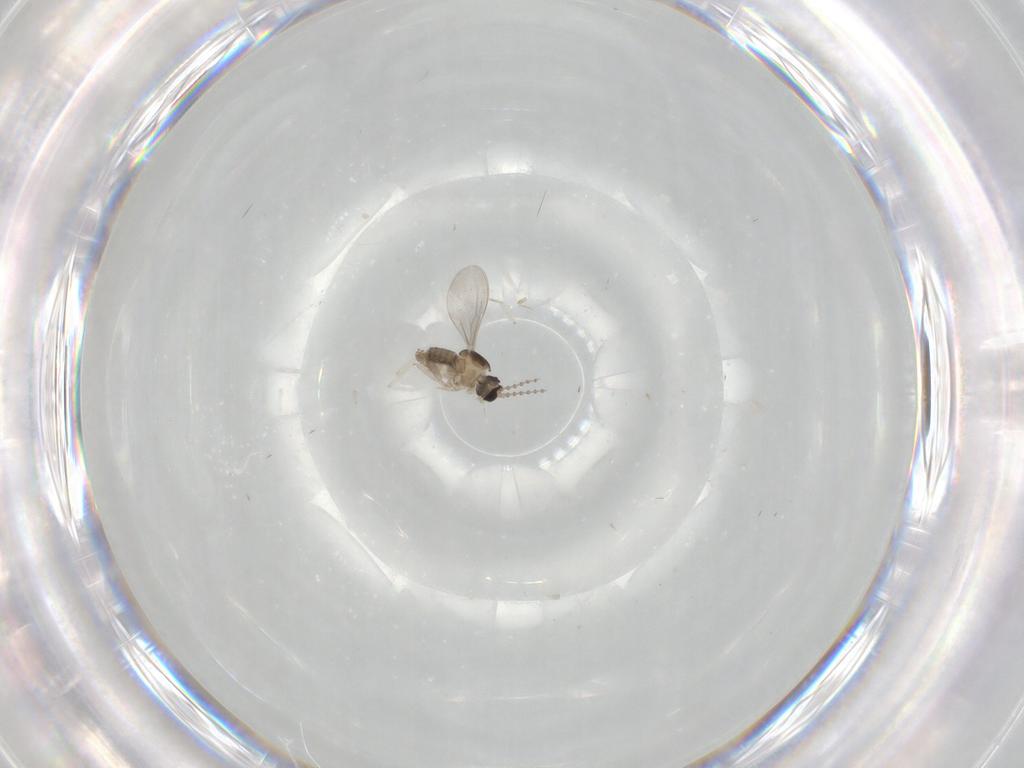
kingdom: Animalia
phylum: Arthropoda
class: Insecta
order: Diptera
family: Cecidomyiidae
